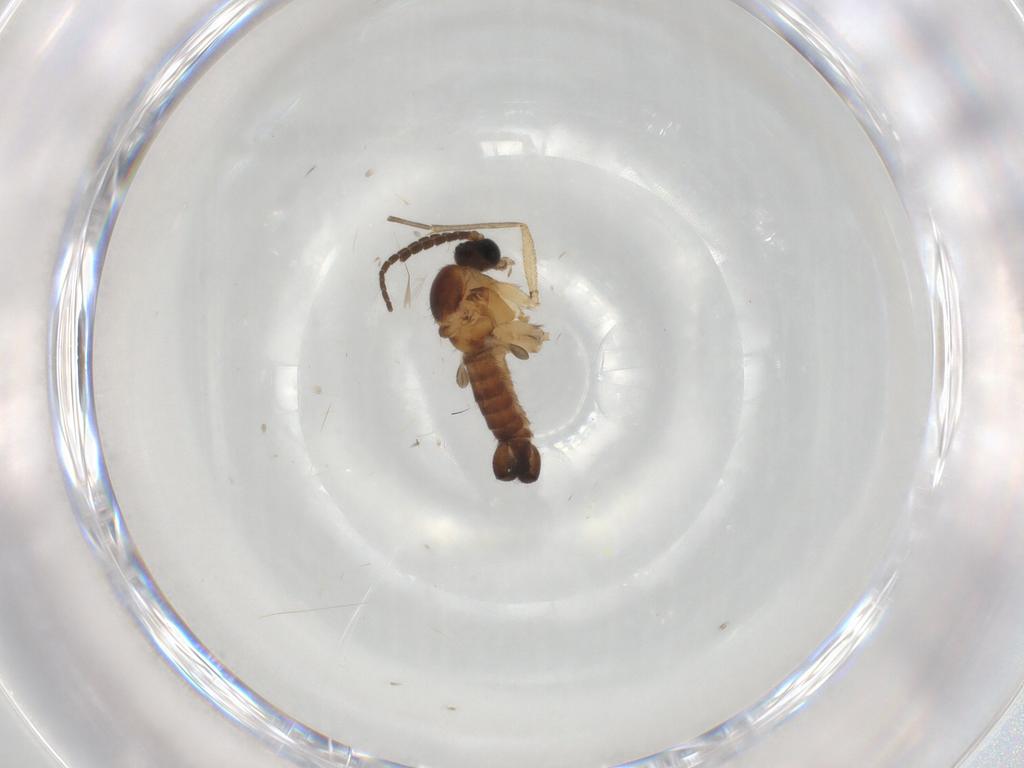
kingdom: Animalia
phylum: Arthropoda
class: Insecta
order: Diptera
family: Sciaridae
